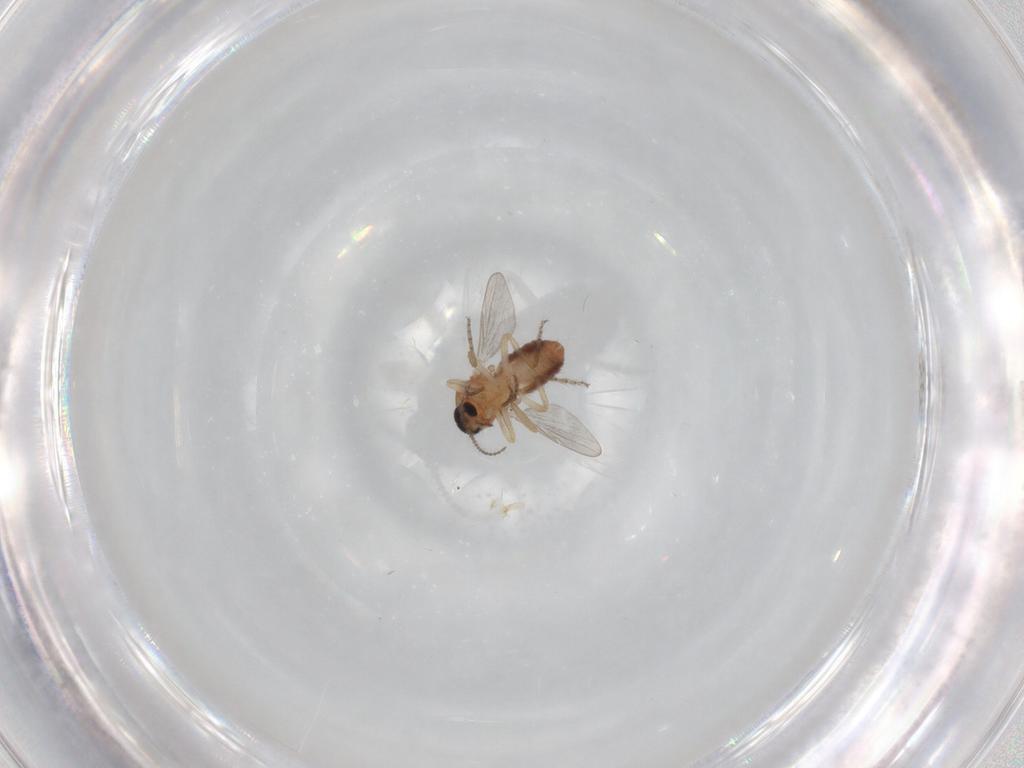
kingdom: Animalia
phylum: Arthropoda
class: Insecta
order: Diptera
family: Ceratopogonidae
